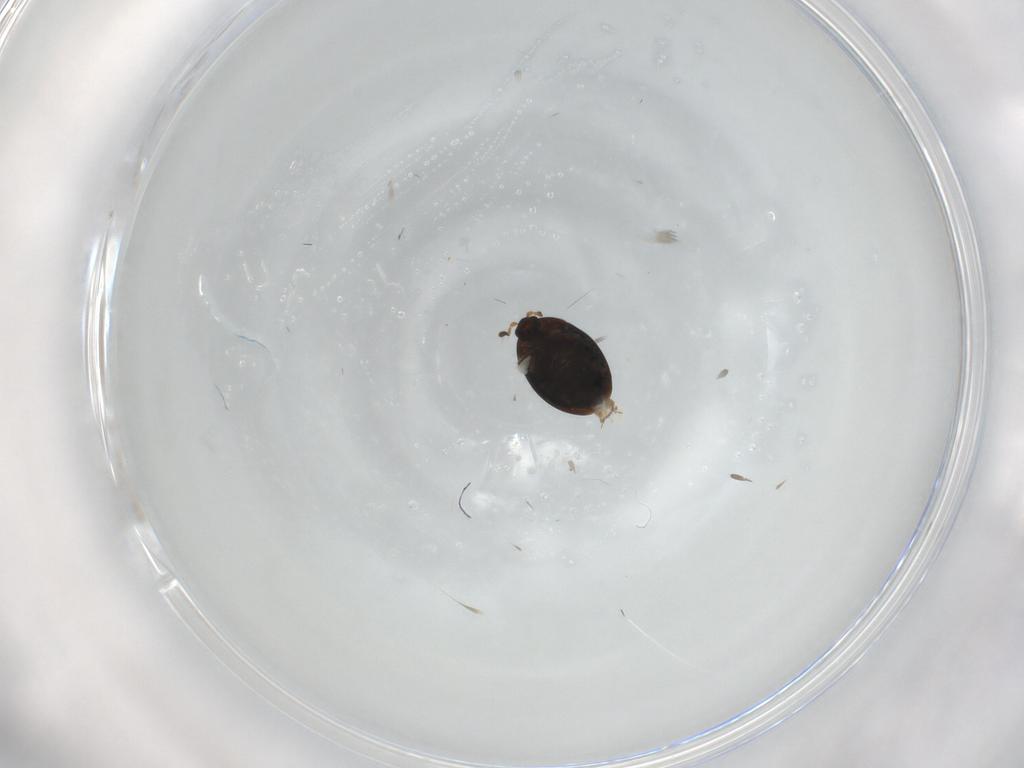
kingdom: Animalia
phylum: Arthropoda
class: Insecta
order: Coleoptera
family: Corylophidae
